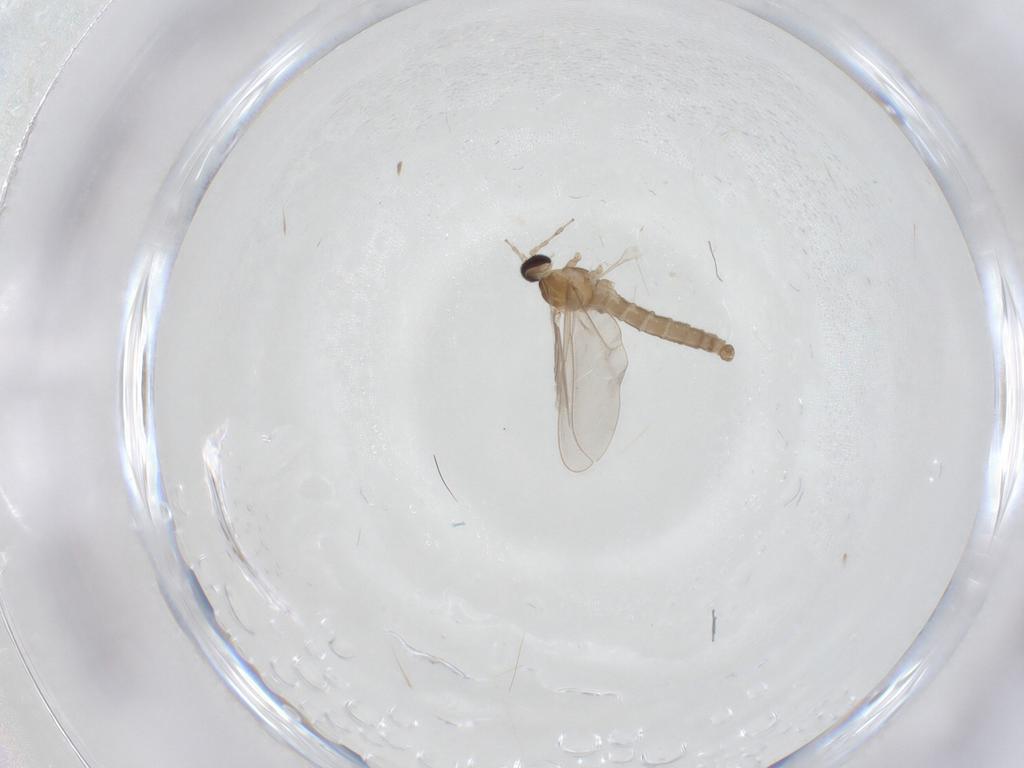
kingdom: Animalia
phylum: Arthropoda
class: Insecta
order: Diptera
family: Cecidomyiidae
